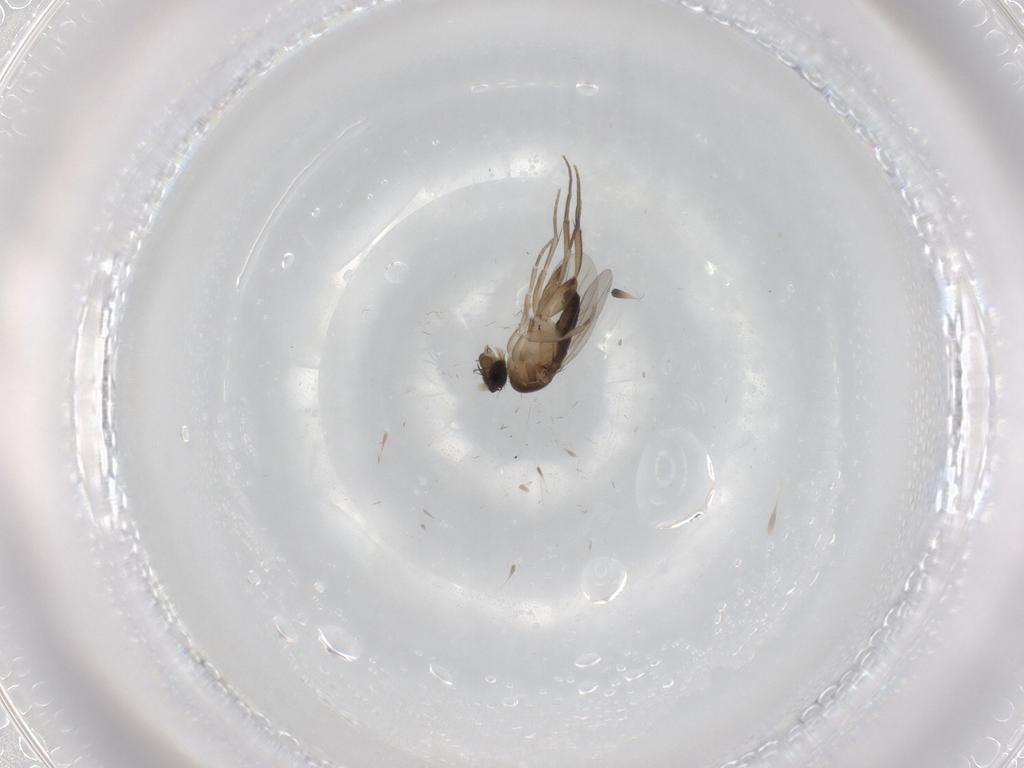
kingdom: Animalia
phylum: Arthropoda
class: Insecta
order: Diptera
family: Phoridae
